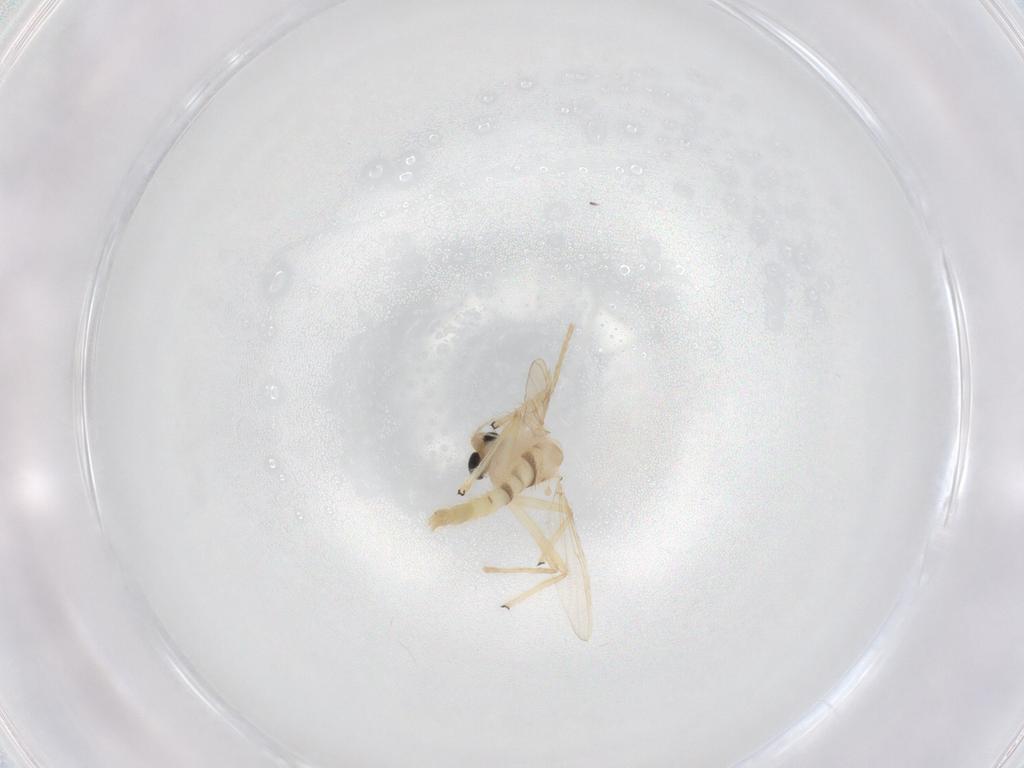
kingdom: Animalia
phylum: Arthropoda
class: Insecta
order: Diptera
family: Chironomidae
